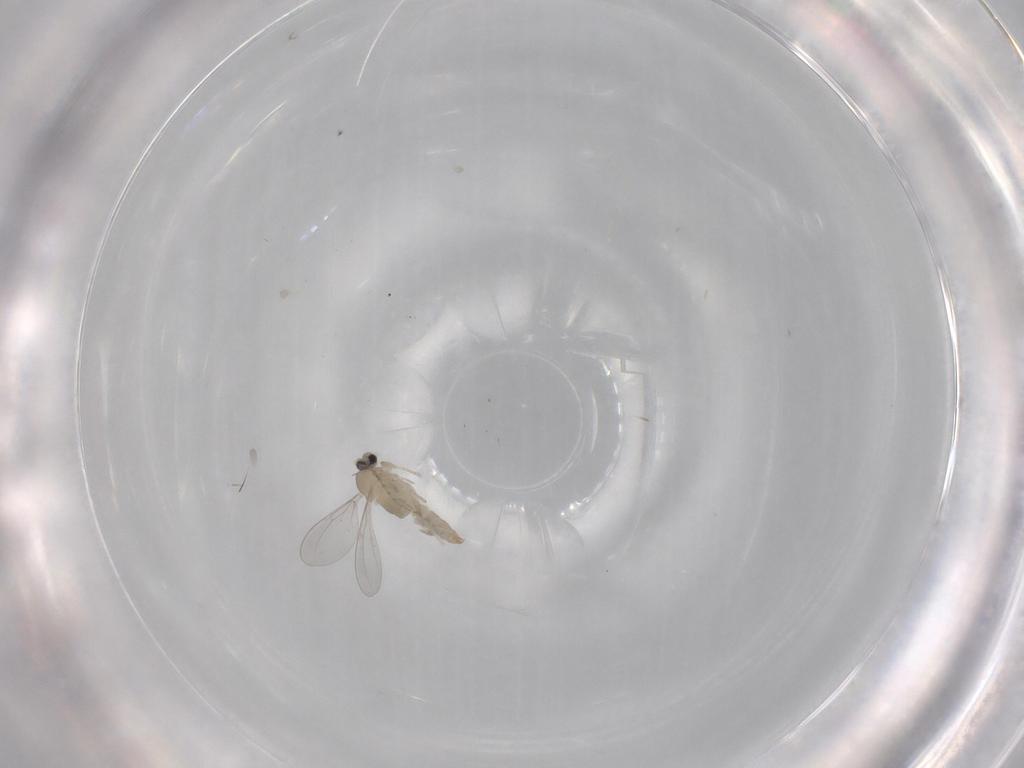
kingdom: Animalia
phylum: Arthropoda
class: Insecta
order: Diptera
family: Cecidomyiidae
